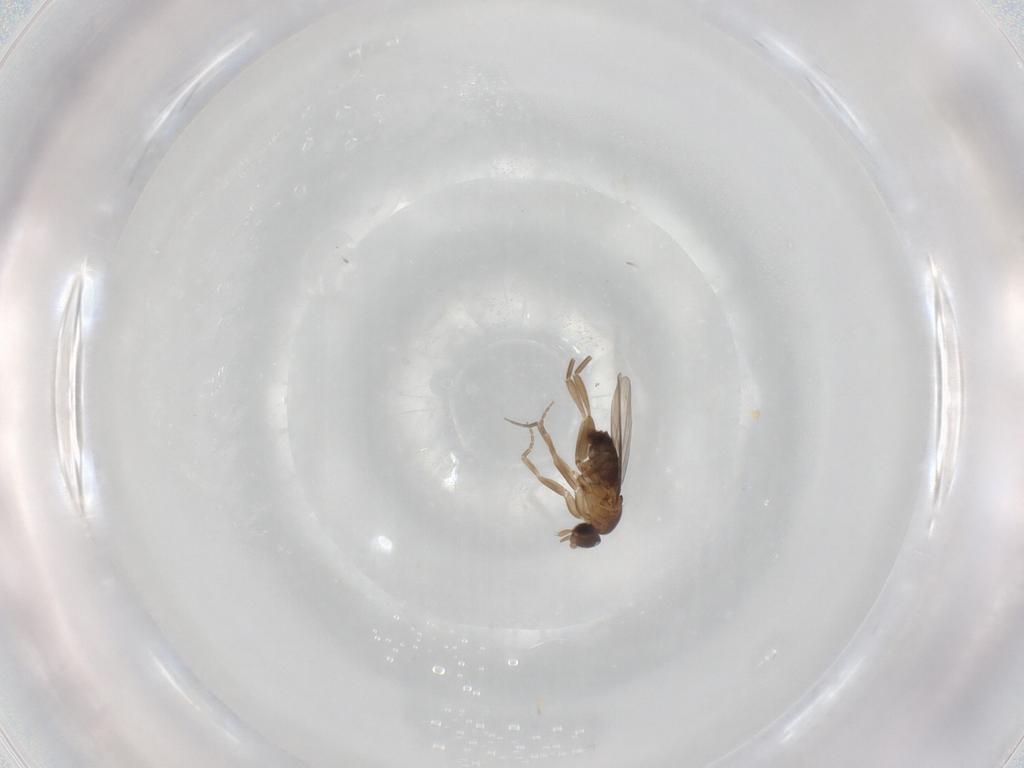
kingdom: Animalia
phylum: Arthropoda
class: Insecta
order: Diptera
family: Phoridae
